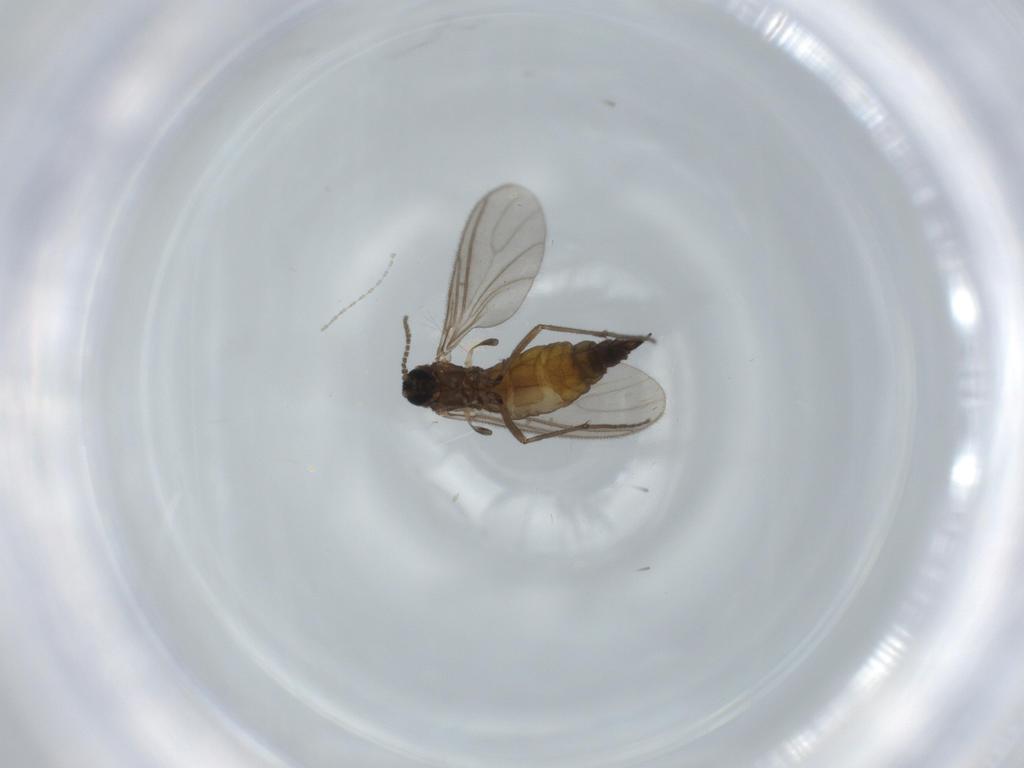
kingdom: Animalia
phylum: Arthropoda
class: Insecta
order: Diptera
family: Sciaridae
